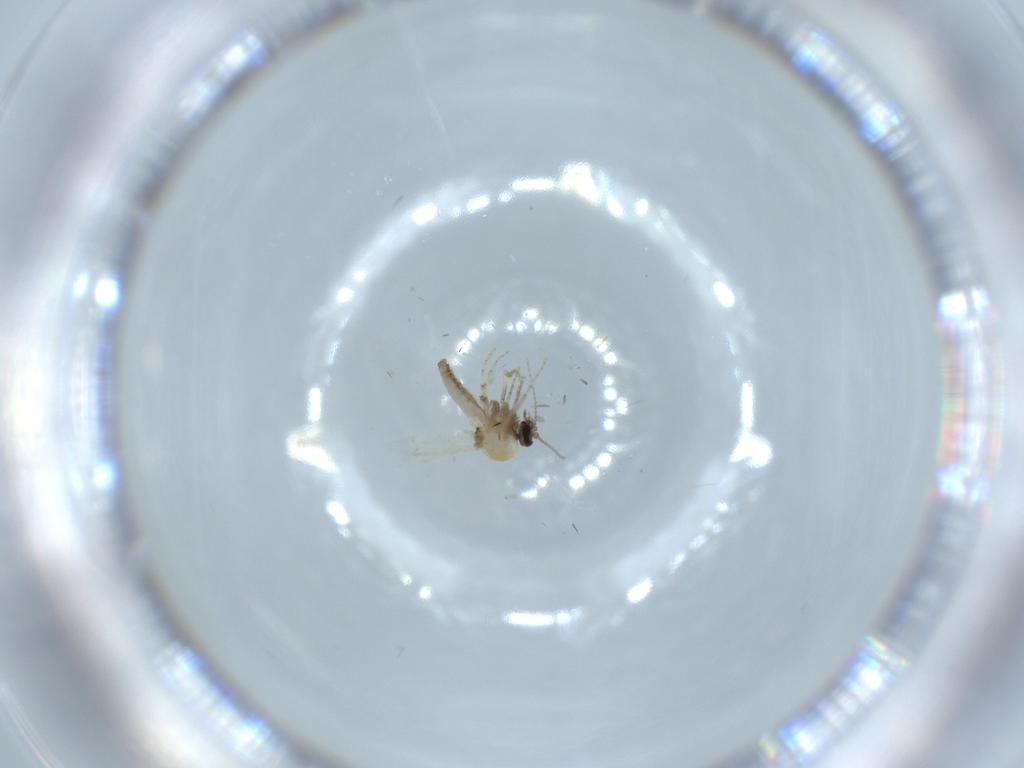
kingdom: Animalia
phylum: Arthropoda
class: Insecta
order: Diptera
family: Ceratopogonidae
